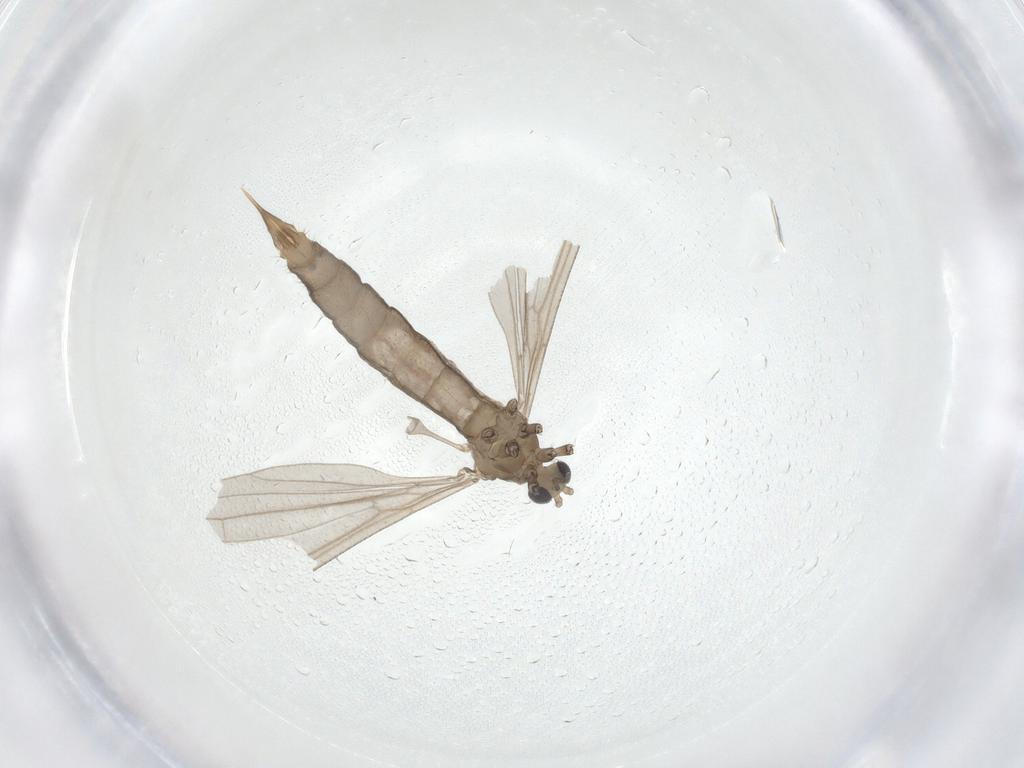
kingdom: Animalia
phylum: Arthropoda
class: Insecta
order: Diptera
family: Limoniidae
